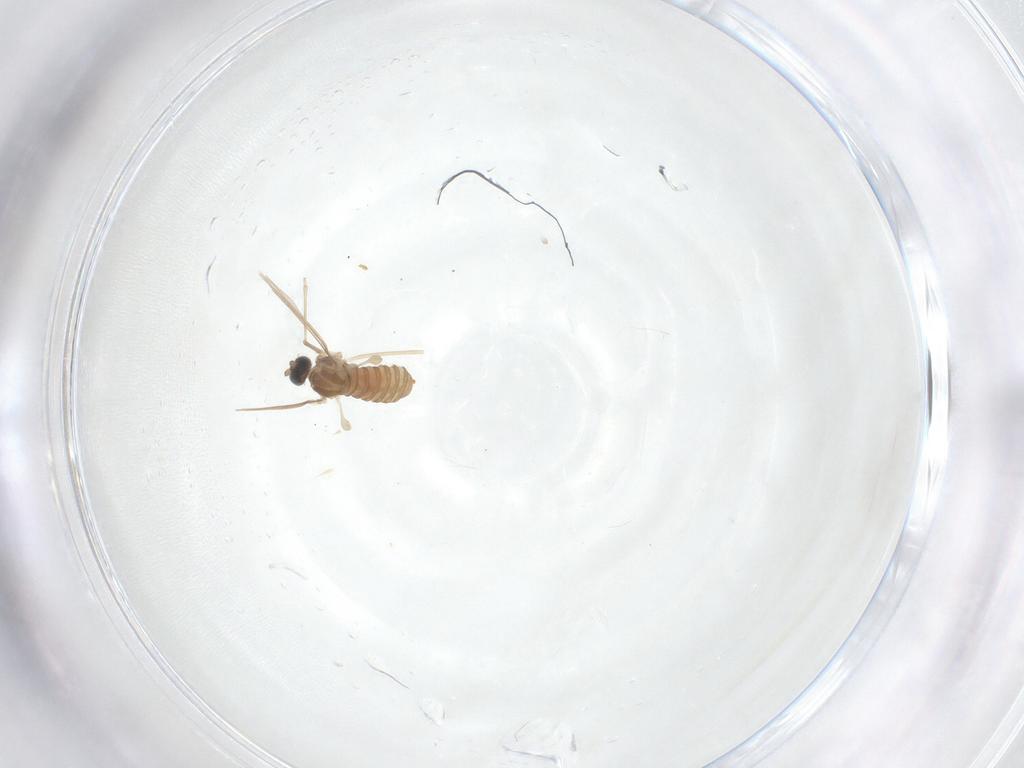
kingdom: Animalia
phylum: Arthropoda
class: Insecta
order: Diptera
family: Cecidomyiidae
